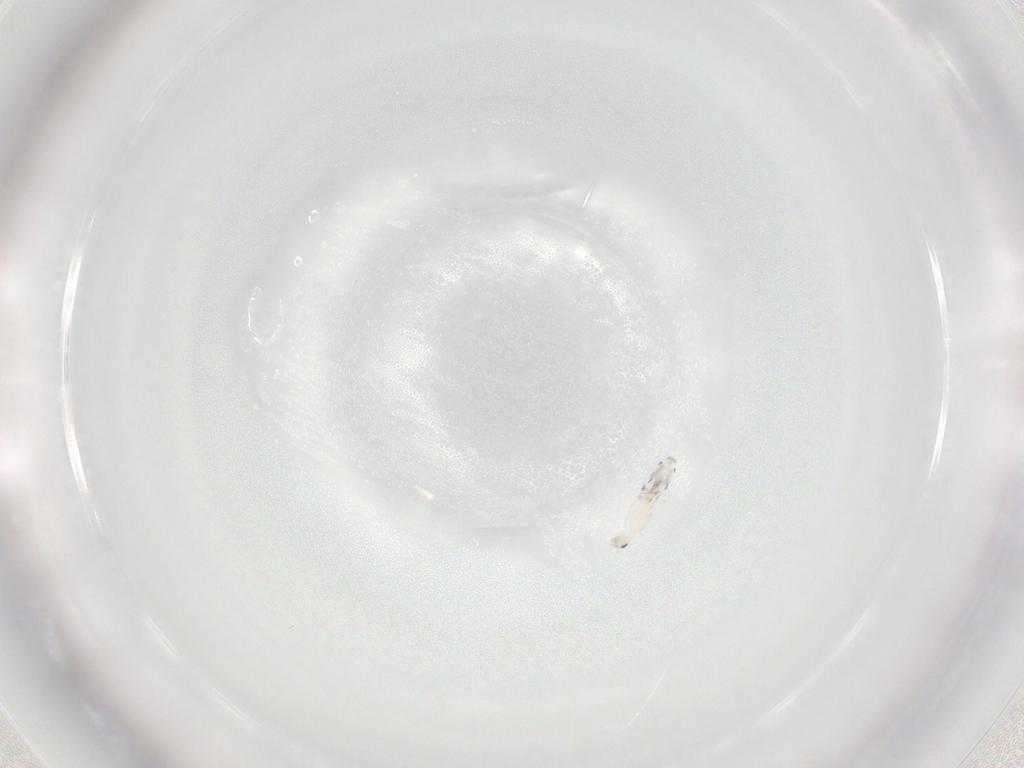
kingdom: Animalia
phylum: Arthropoda
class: Collembola
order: Entomobryomorpha
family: Entomobryidae
